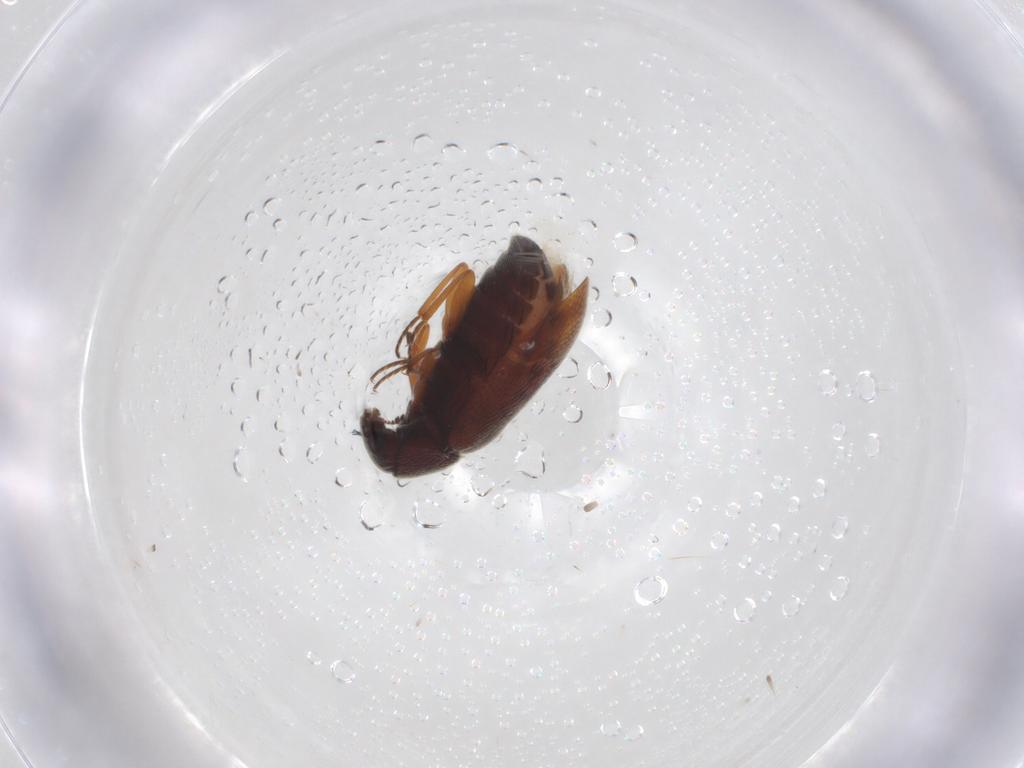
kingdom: Animalia
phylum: Arthropoda
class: Insecta
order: Coleoptera
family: Rhadalidae
